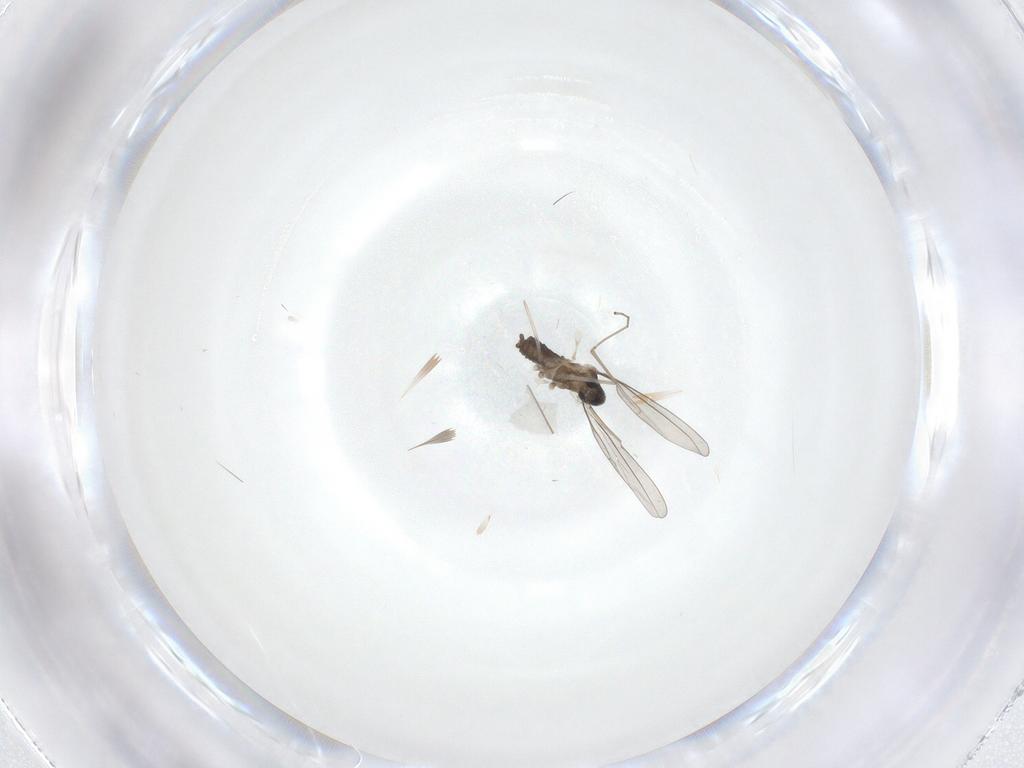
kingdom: Animalia
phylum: Arthropoda
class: Insecta
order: Diptera
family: Cecidomyiidae
